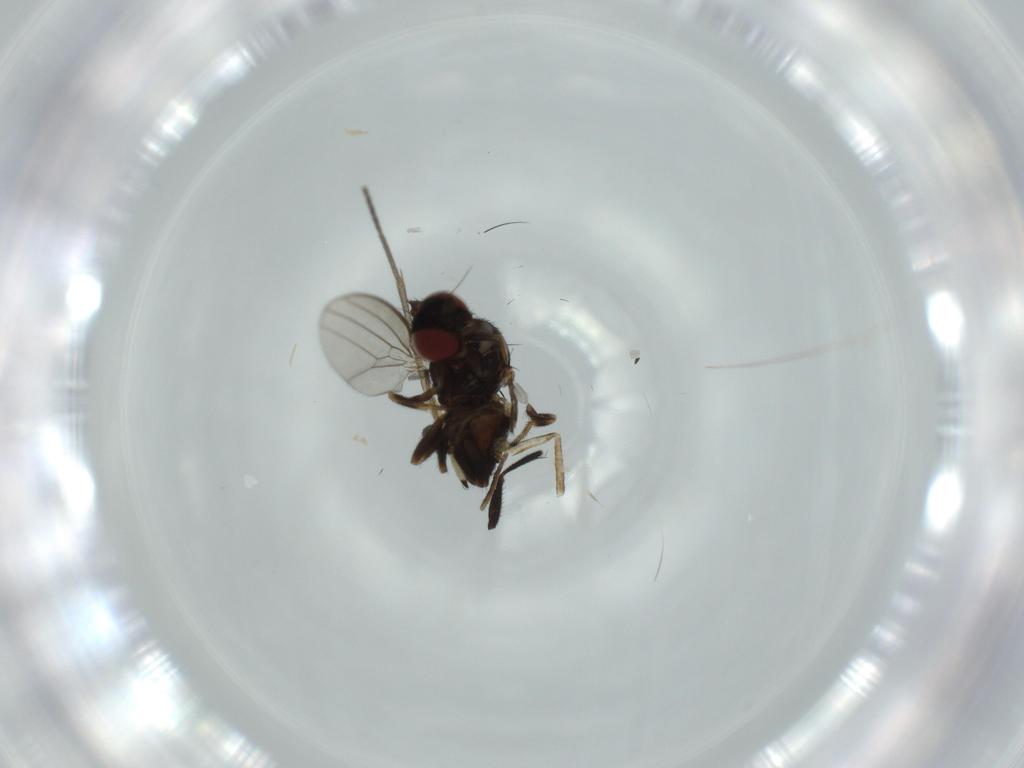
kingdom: Animalia
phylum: Arthropoda
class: Insecta
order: Diptera
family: Milichiidae
